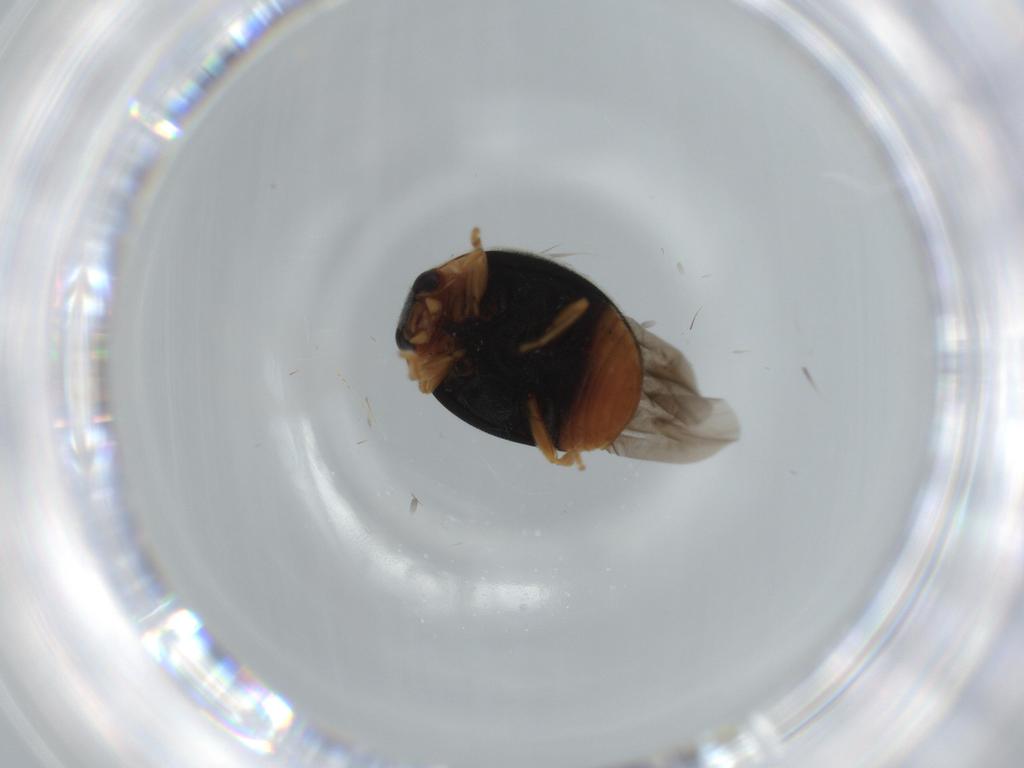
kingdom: Animalia
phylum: Arthropoda
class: Insecta
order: Coleoptera
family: Coccinellidae
